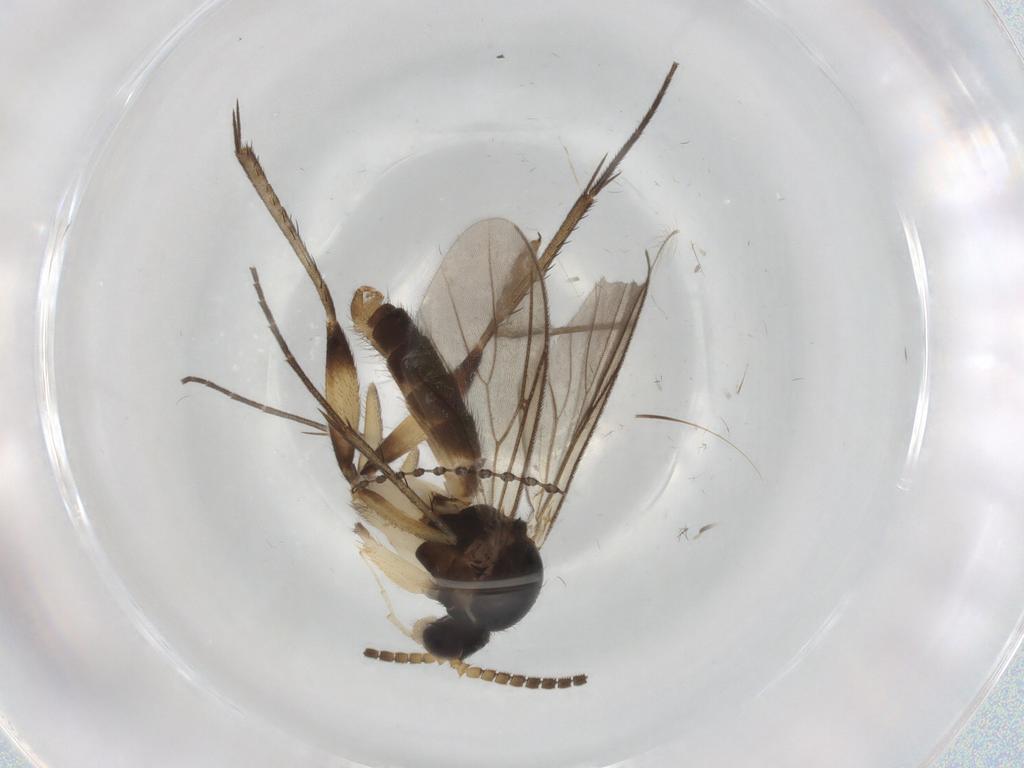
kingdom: Animalia
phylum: Arthropoda
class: Insecta
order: Diptera
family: Mycetophilidae
